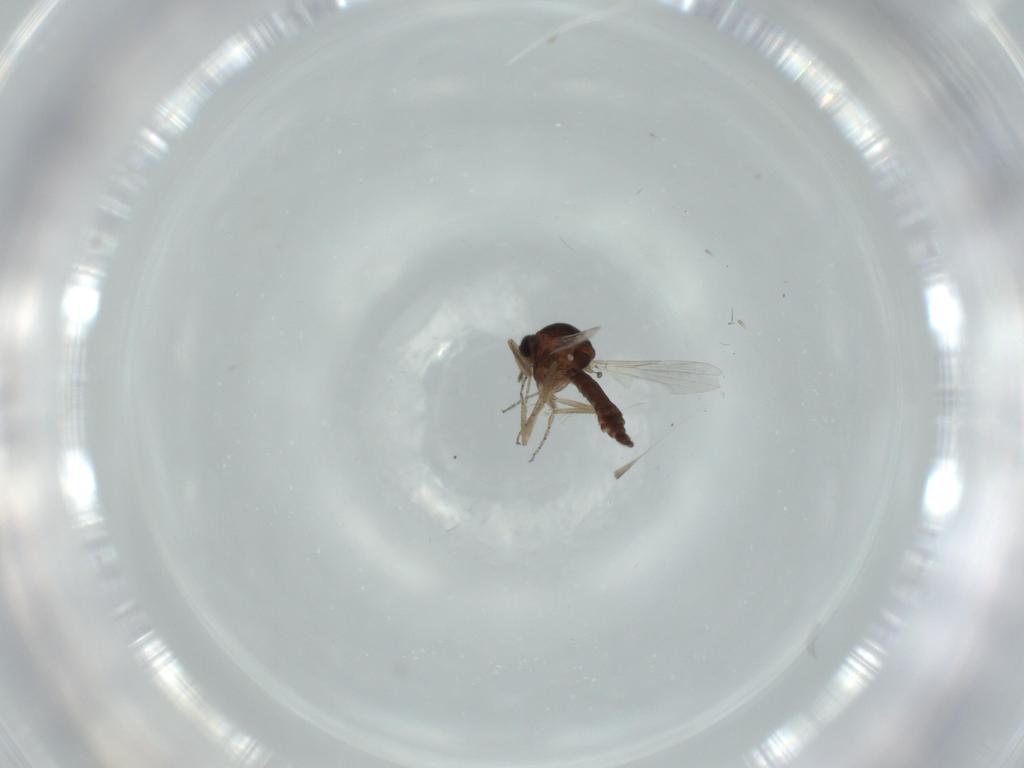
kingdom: Animalia
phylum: Arthropoda
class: Insecta
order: Diptera
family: Ceratopogonidae
